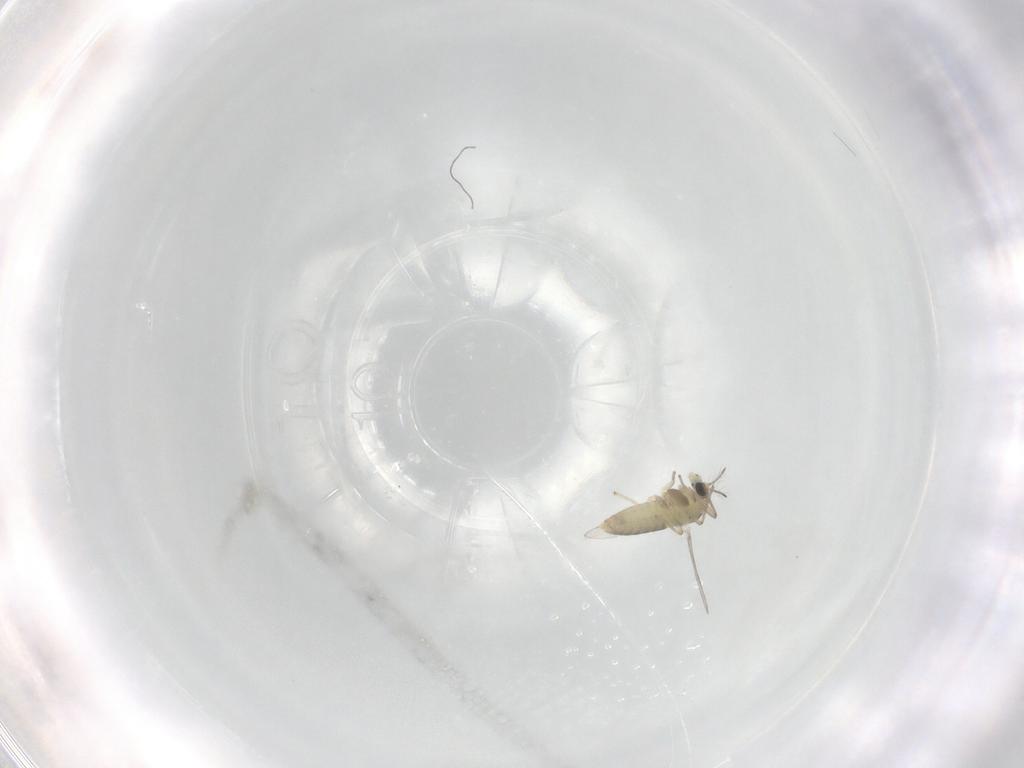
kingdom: Animalia
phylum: Arthropoda
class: Insecta
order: Diptera
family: Chironomidae
